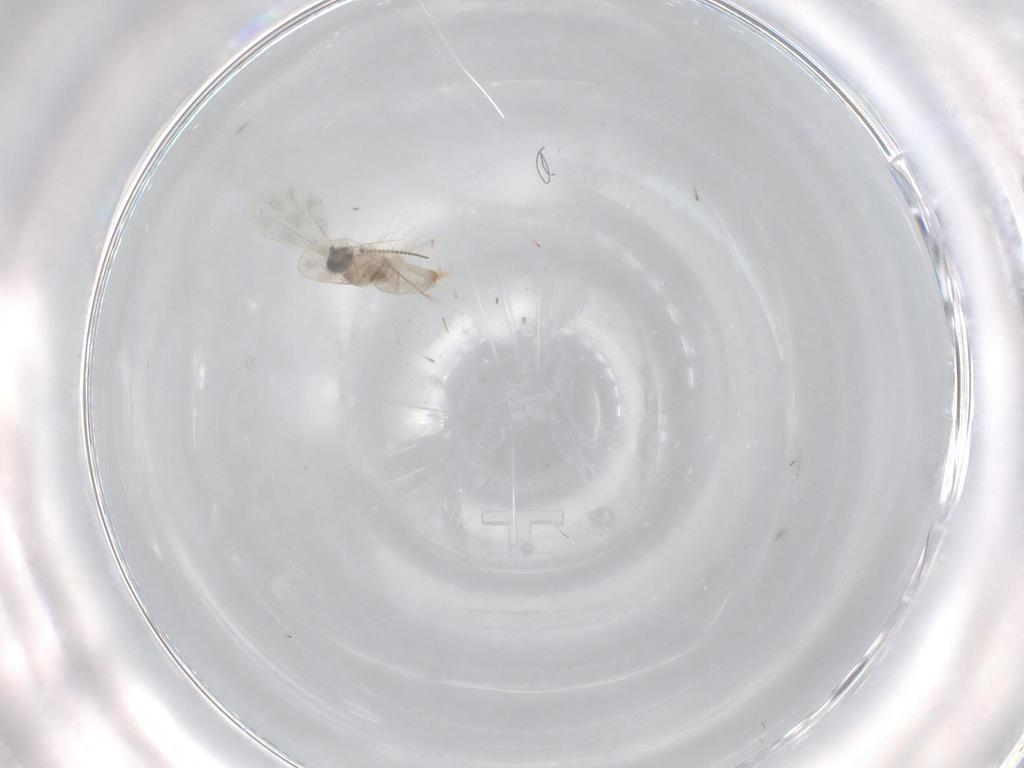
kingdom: Animalia
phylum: Arthropoda
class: Insecta
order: Diptera
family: Cecidomyiidae
